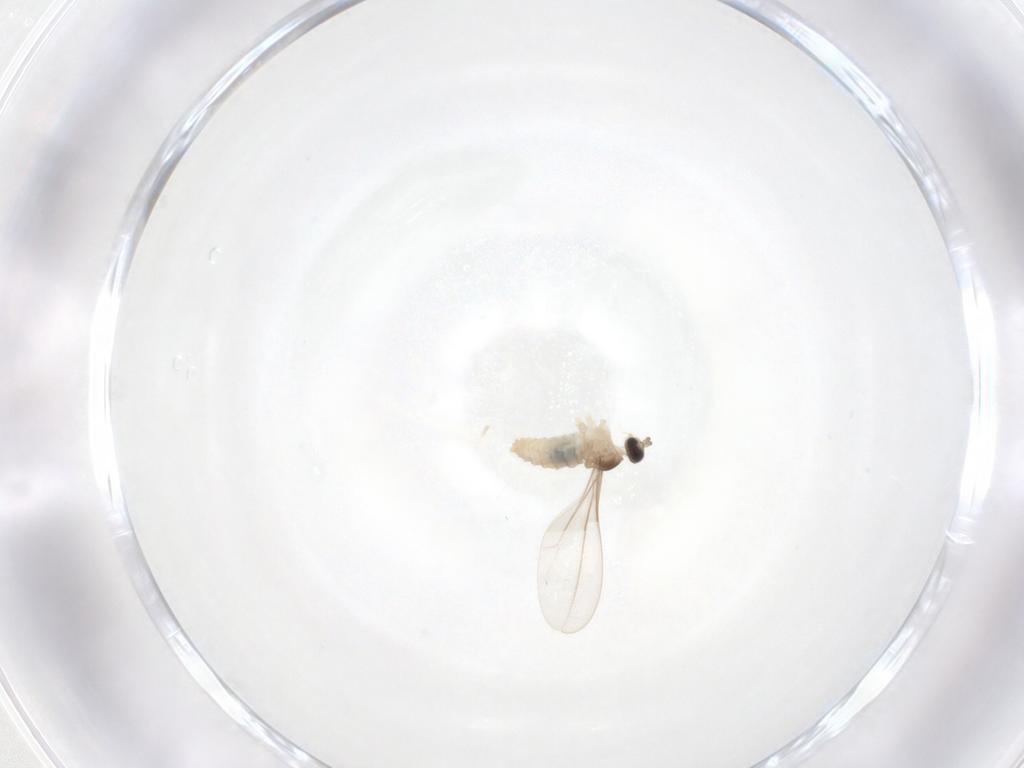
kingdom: Animalia
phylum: Arthropoda
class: Insecta
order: Diptera
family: Cecidomyiidae
